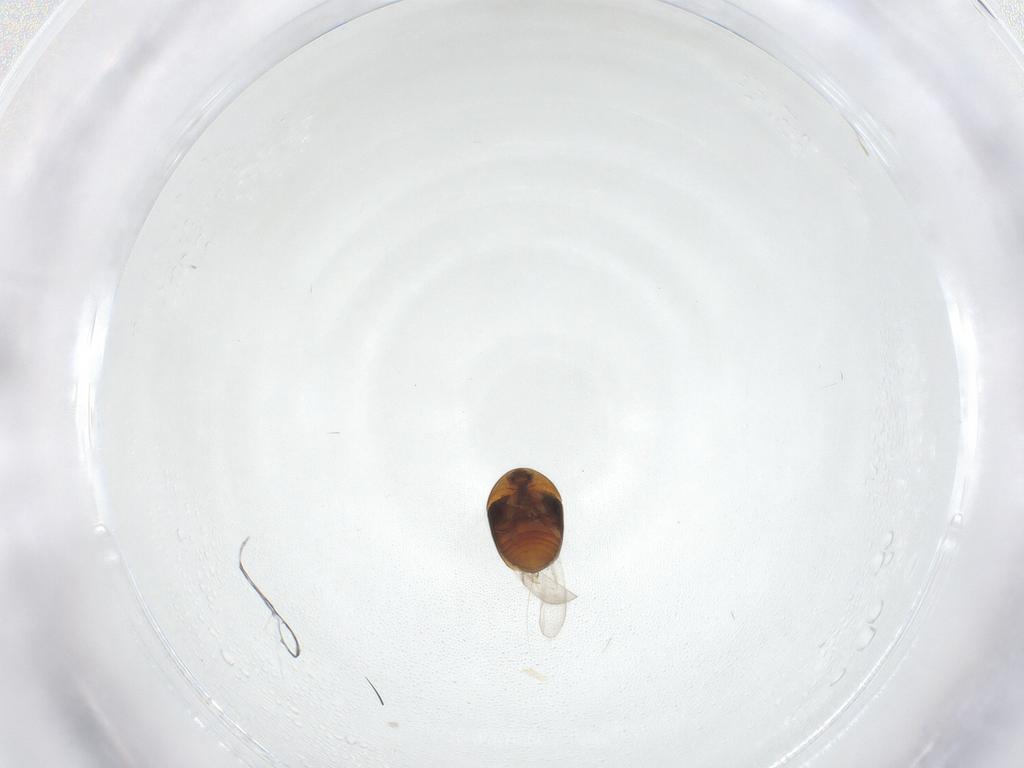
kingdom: Animalia
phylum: Arthropoda
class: Insecta
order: Coleoptera
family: Corylophidae
